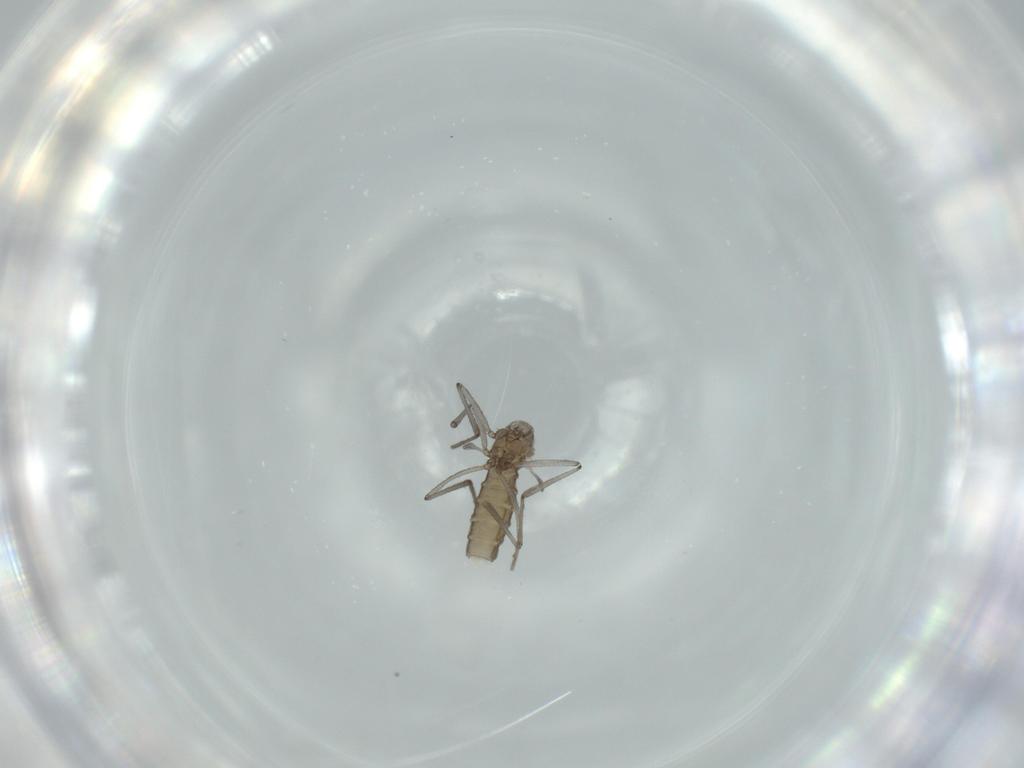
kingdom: Animalia
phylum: Arthropoda
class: Insecta
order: Diptera
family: Cecidomyiidae
